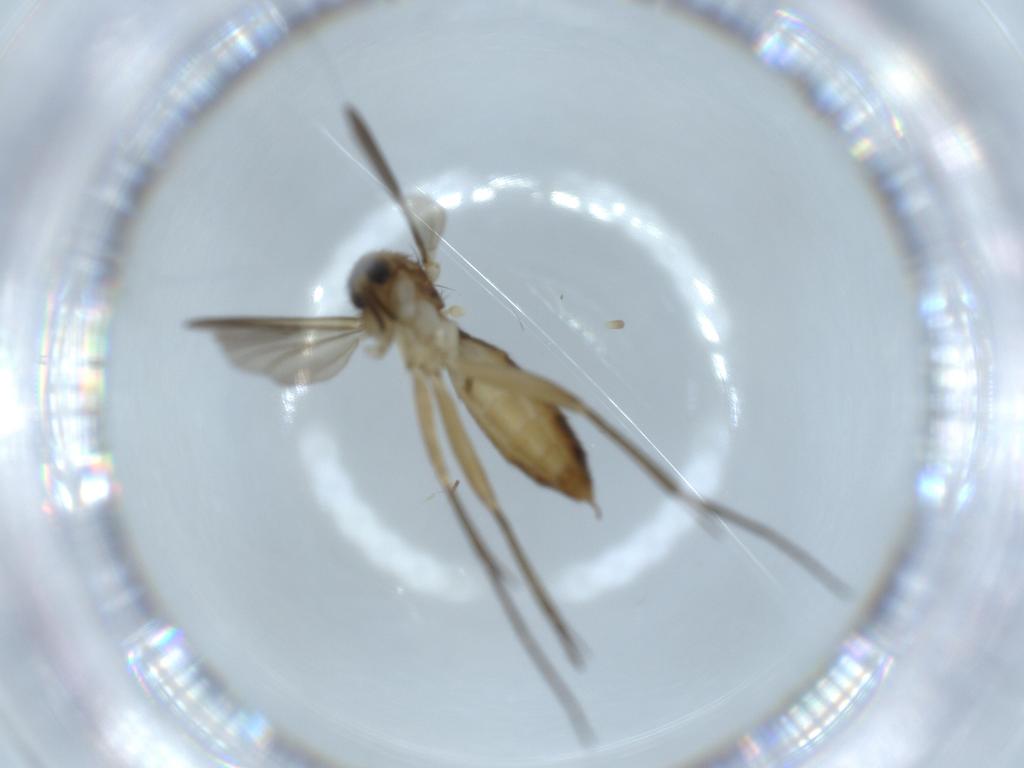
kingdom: Animalia
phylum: Arthropoda
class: Insecta
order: Diptera
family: Mycetophilidae
